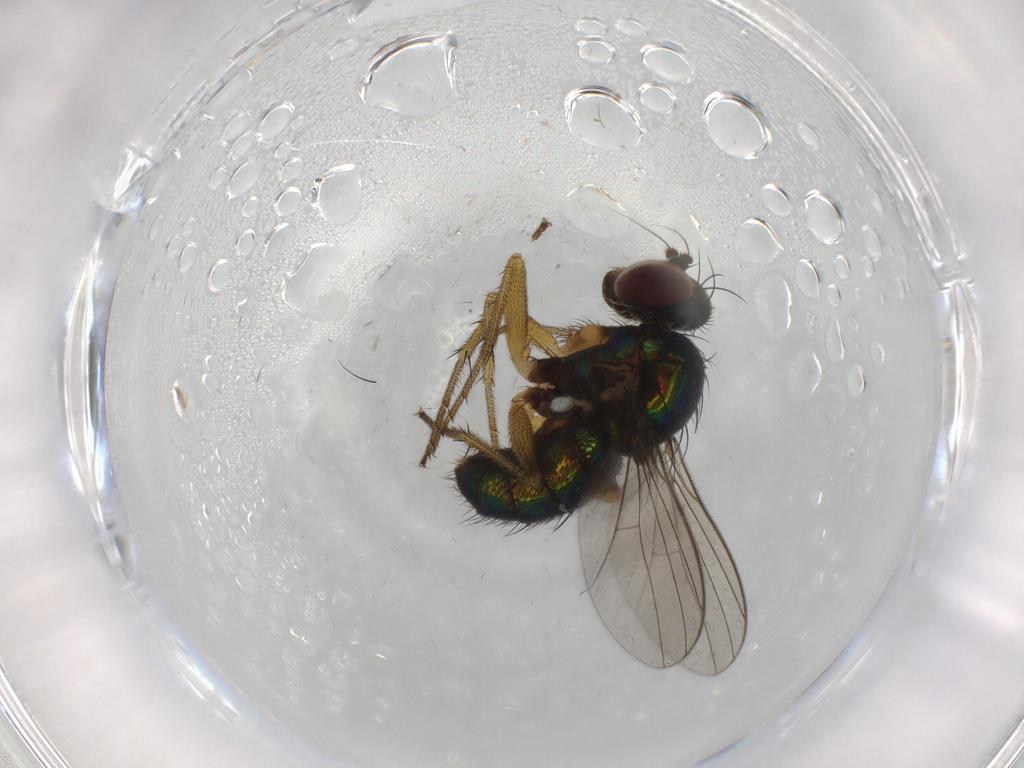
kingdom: Animalia
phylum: Arthropoda
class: Insecta
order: Diptera
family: Dolichopodidae
